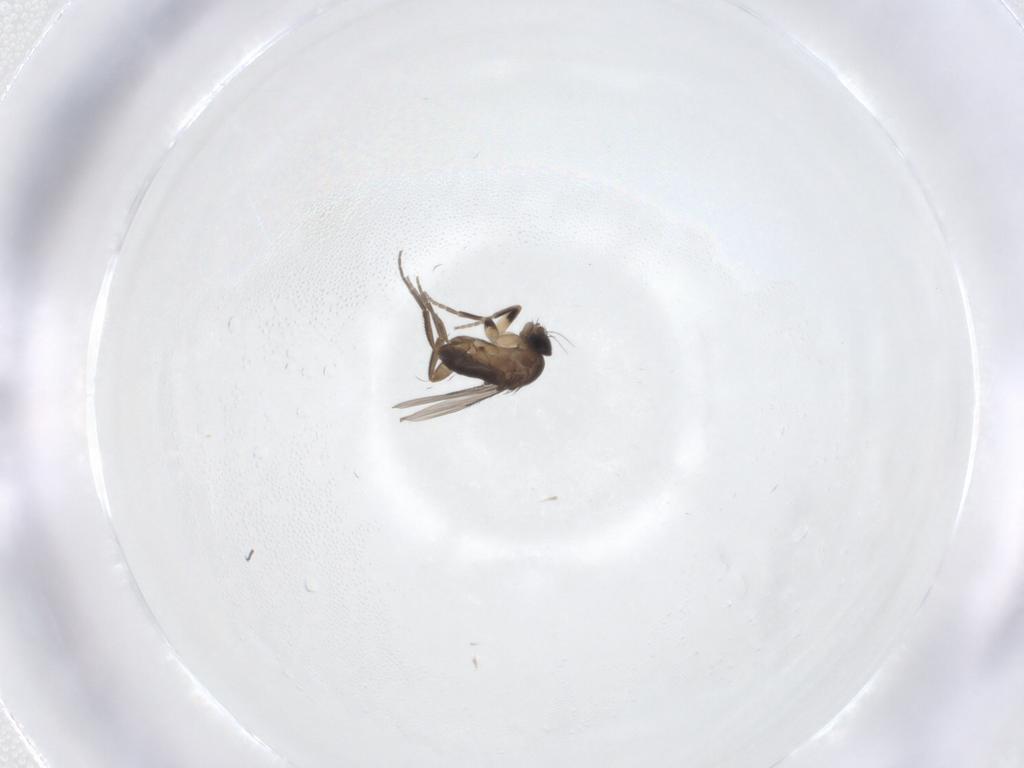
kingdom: Animalia
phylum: Arthropoda
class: Insecta
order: Diptera
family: Phoridae
